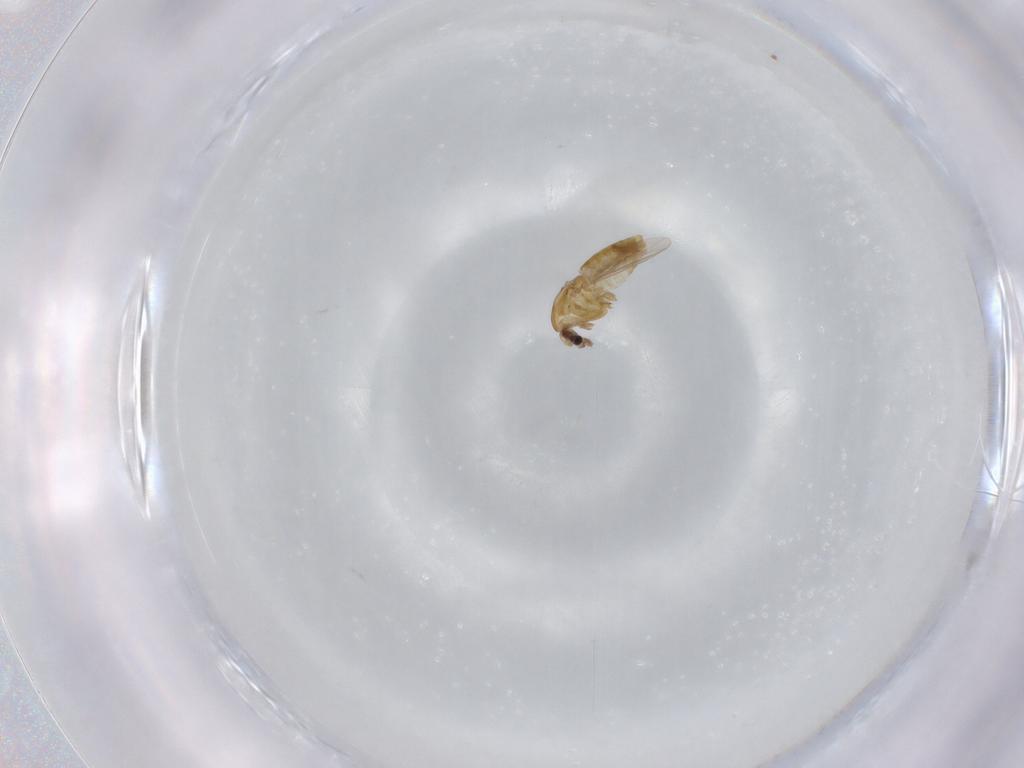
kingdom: Animalia
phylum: Arthropoda
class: Insecta
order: Diptera
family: Chironomidae
